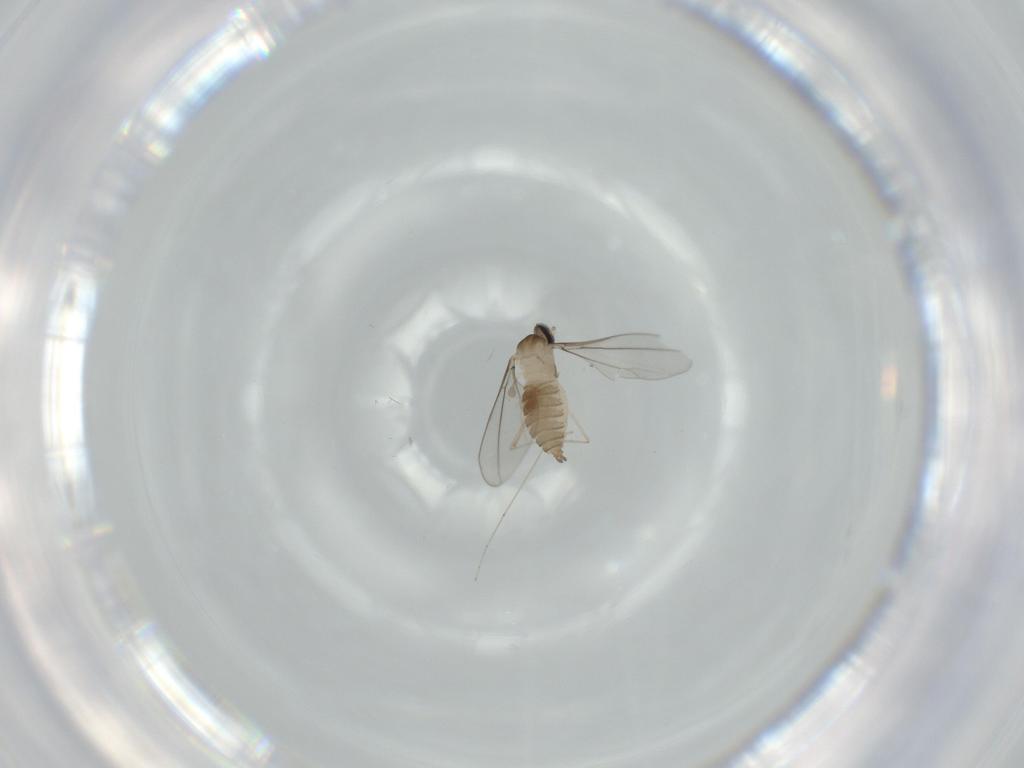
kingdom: Animalia
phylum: Arthropoda
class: Insecta
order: Diptera
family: Cecidomyiidae
